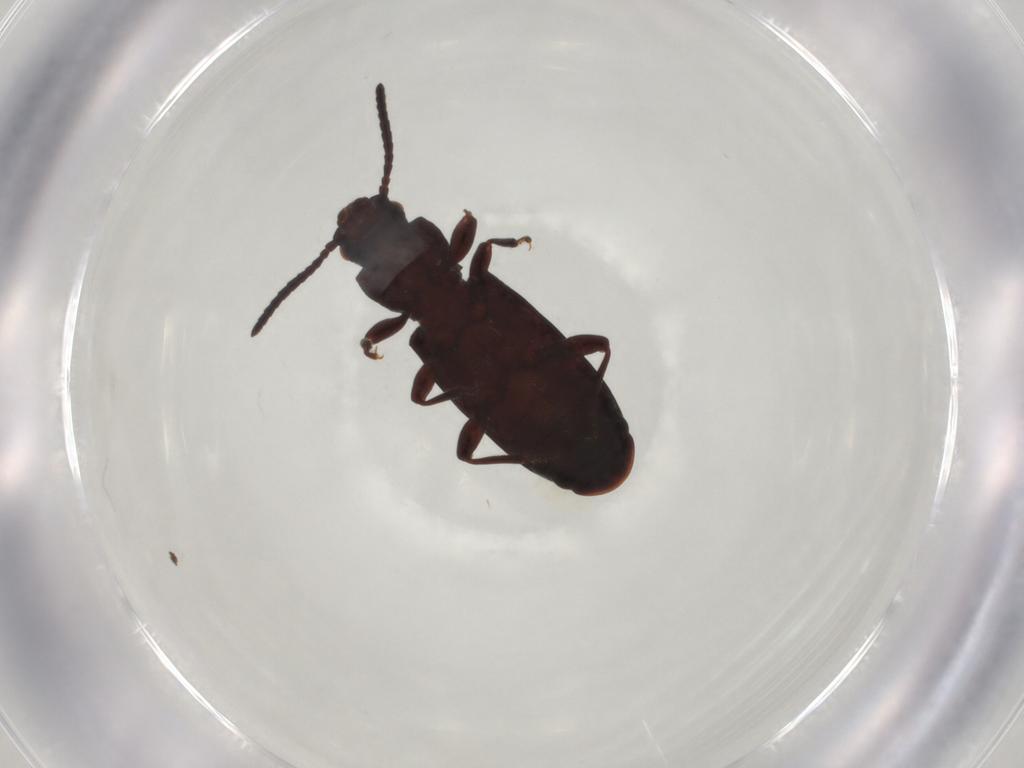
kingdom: Animalia
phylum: Arthropoda
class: Insecta
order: Coleoptera
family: Tenebrionidae
